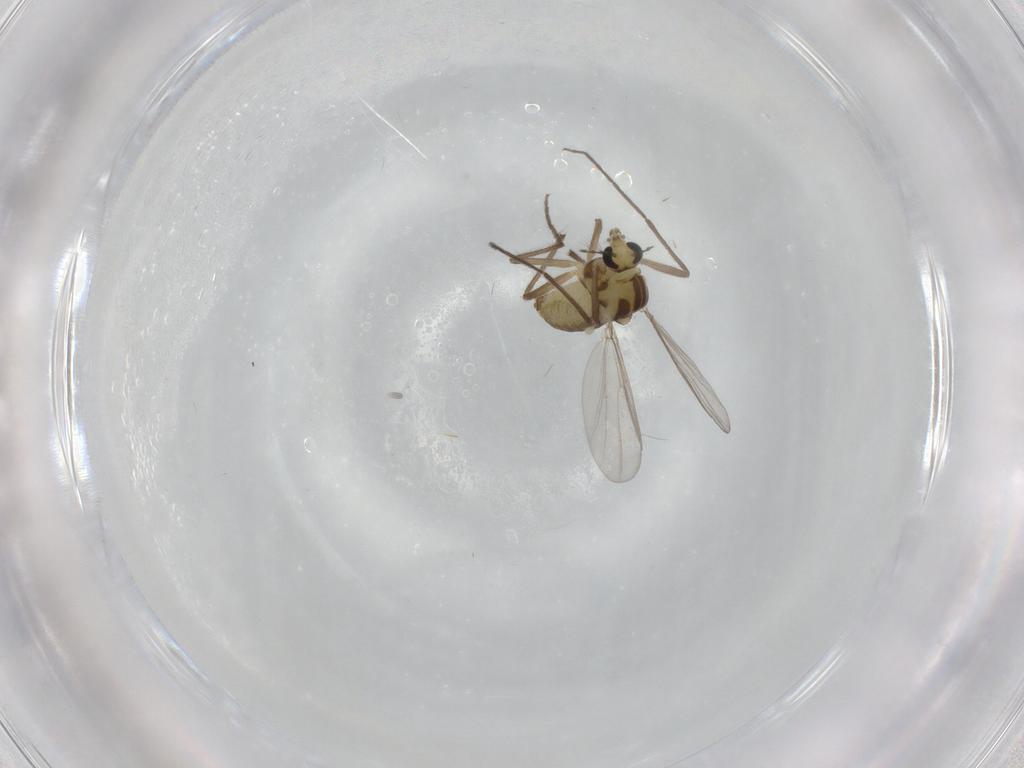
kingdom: Animalia
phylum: Arthropoda
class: Insecta
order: Diptera
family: Chironomidae
